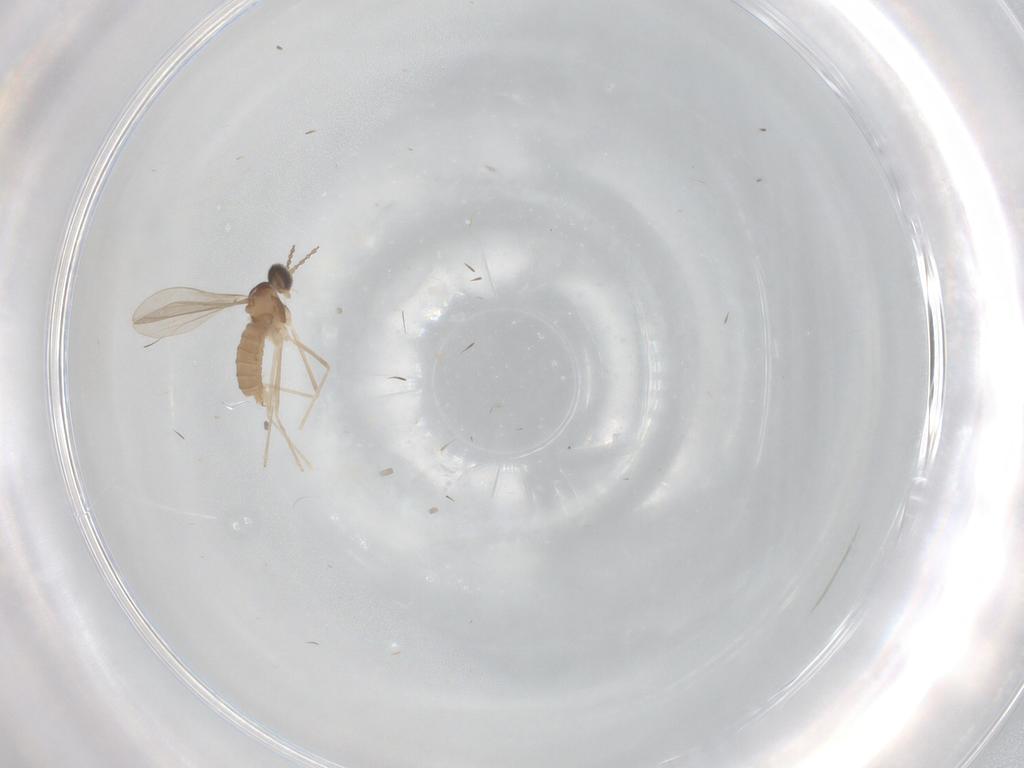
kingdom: Animalia
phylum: Arthropoda
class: Insecta
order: Diptera
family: Cecidomyiidae
